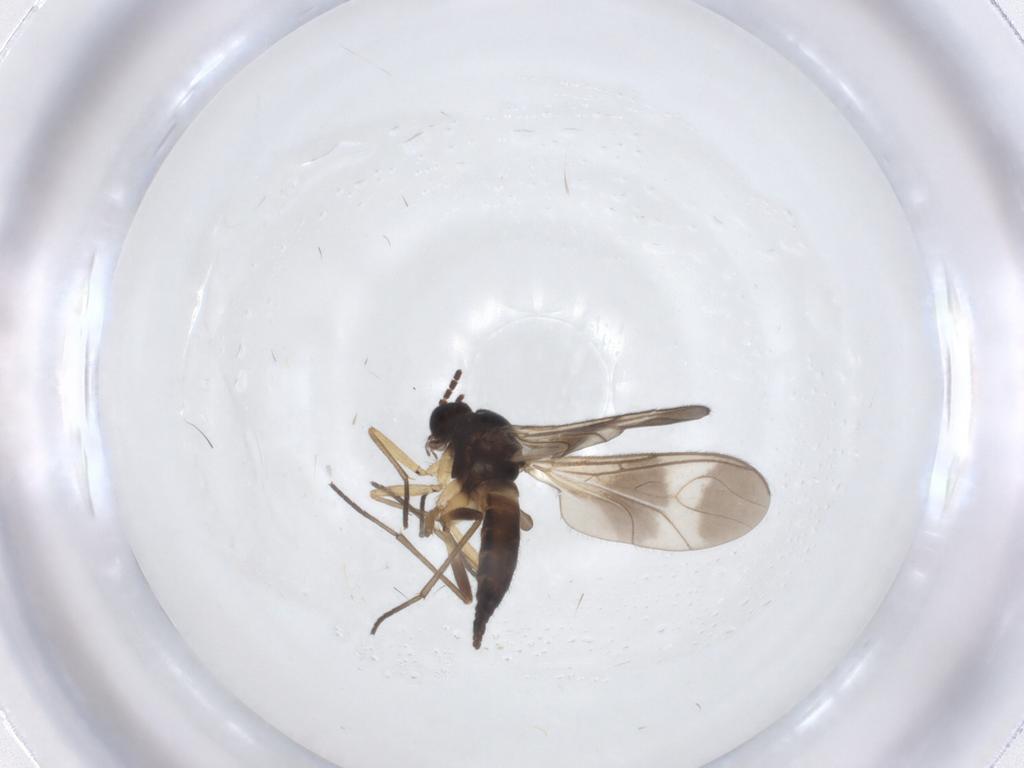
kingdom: Animalia
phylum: Arthropoda
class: Insecta
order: Diptera
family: Sciaridae
